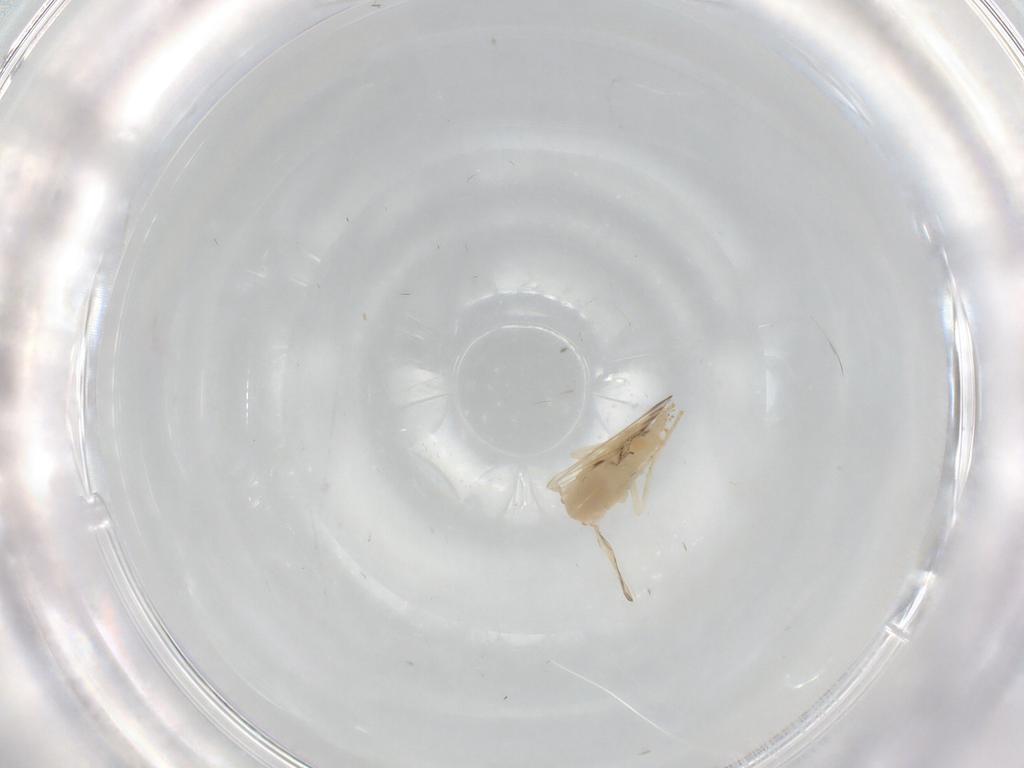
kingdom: Animalia
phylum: Arthropoda
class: Insecta
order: Diptera
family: Psychodidae
